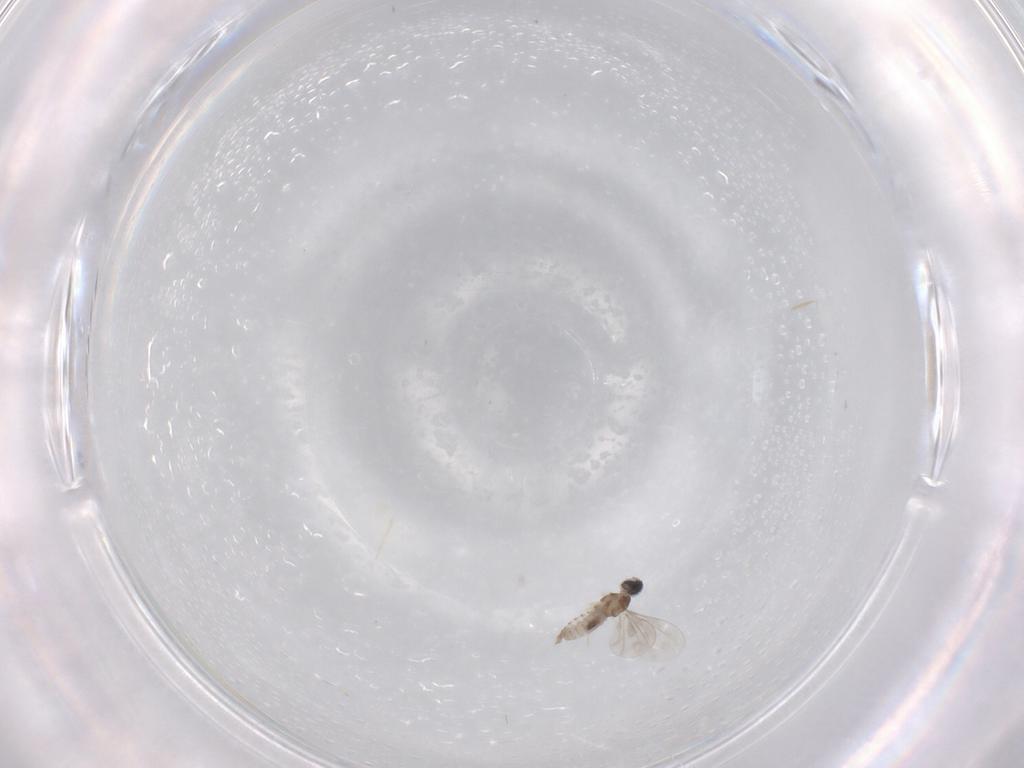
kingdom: Animalia
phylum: Arthropoda
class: Insecta
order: Diptera
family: Cecidomyiidae
